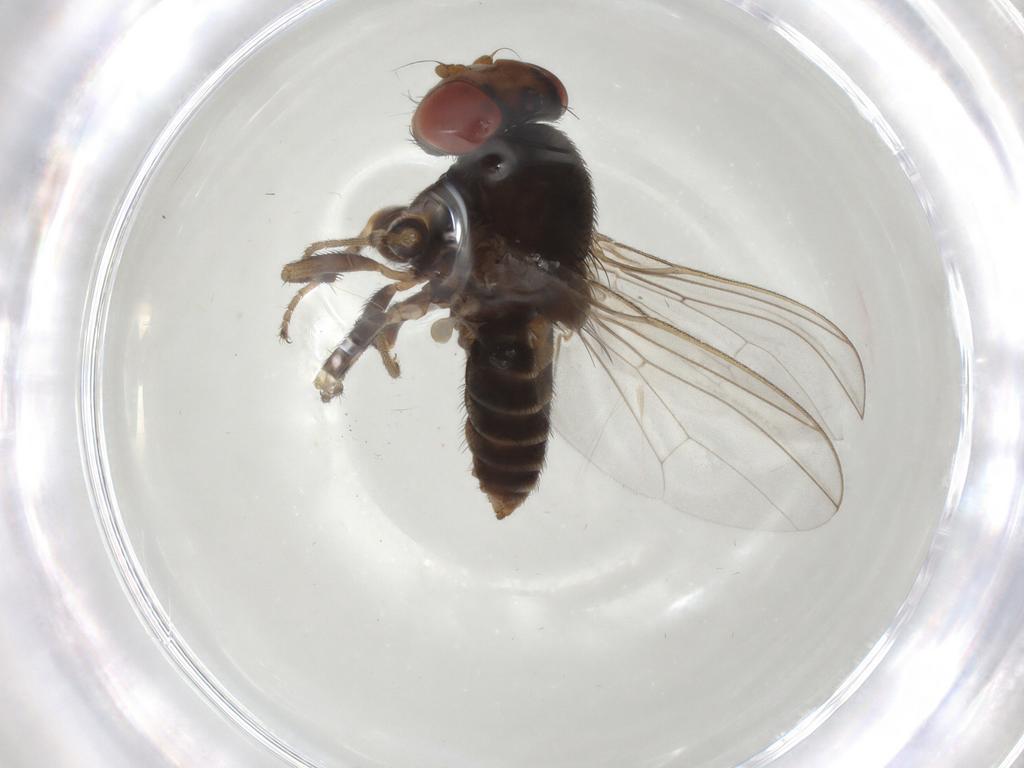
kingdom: Animalia
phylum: Arthropoda
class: Insecta
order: Diptera
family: Drosophilidae
